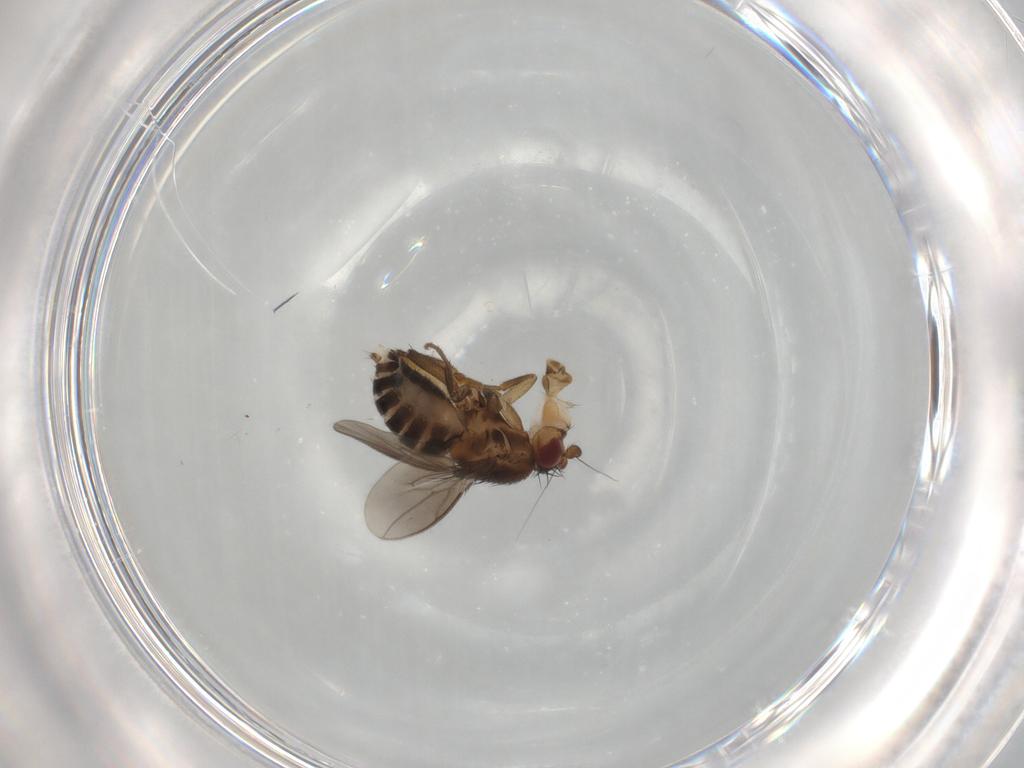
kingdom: Animalia
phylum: Arthropoda
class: Insecta
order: Diptera
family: Sphaeroceridae
